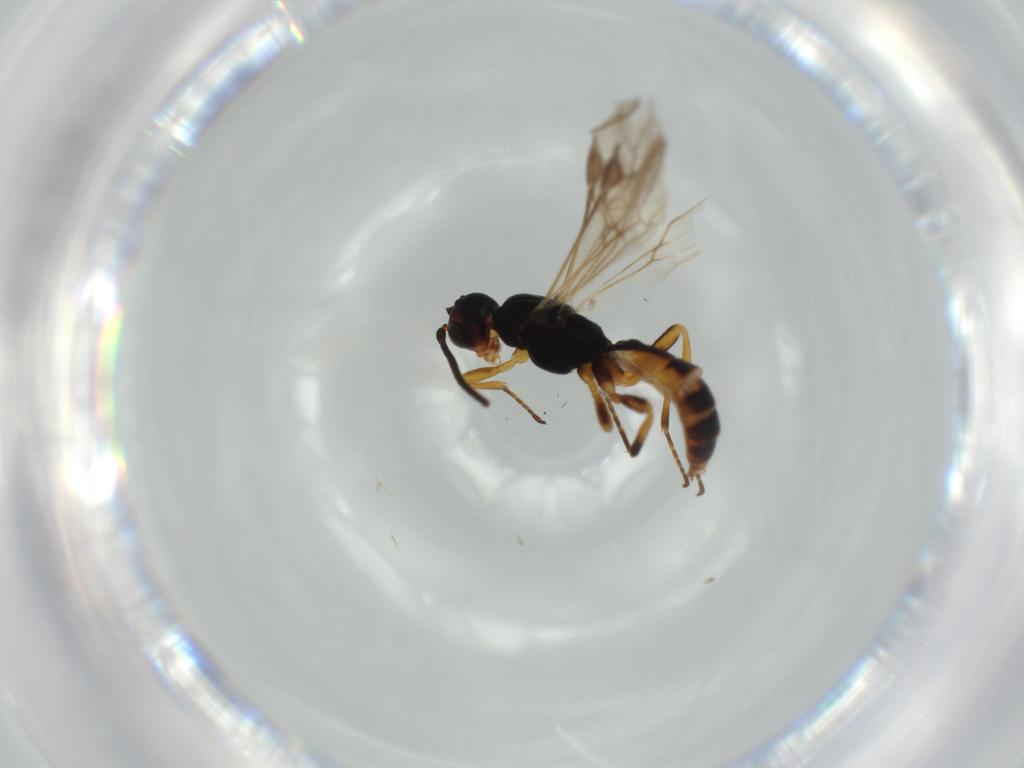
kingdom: Animalia
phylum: Arthropoda
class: Insecta
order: Hymenoptera
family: Braconidae
